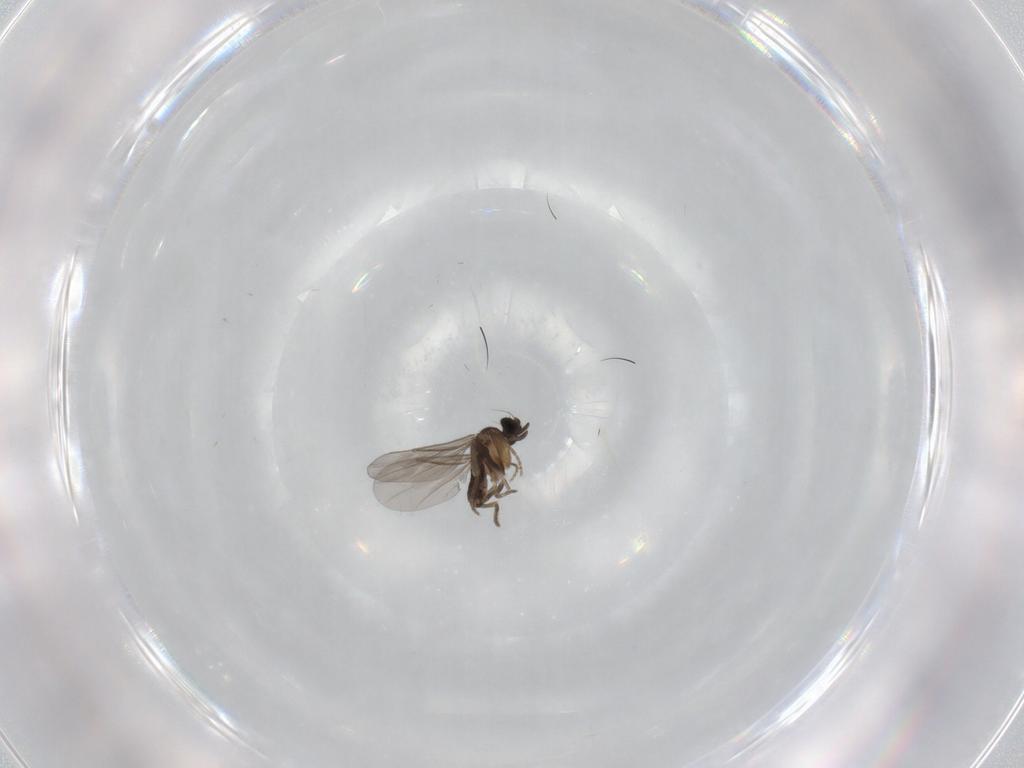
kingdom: Animalia
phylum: Arthropoda
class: Insecta
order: Diptera
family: Dolichopodidae
